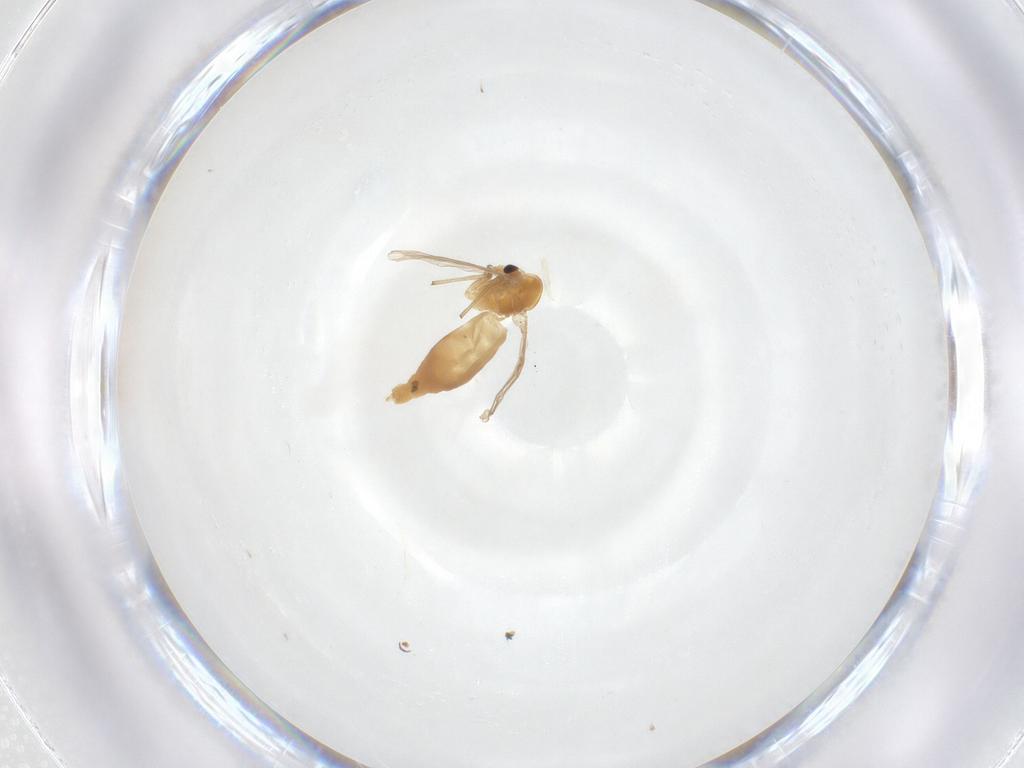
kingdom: Animalia
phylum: Arthropoda
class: Insecta
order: Diptera
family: Chironomidae
